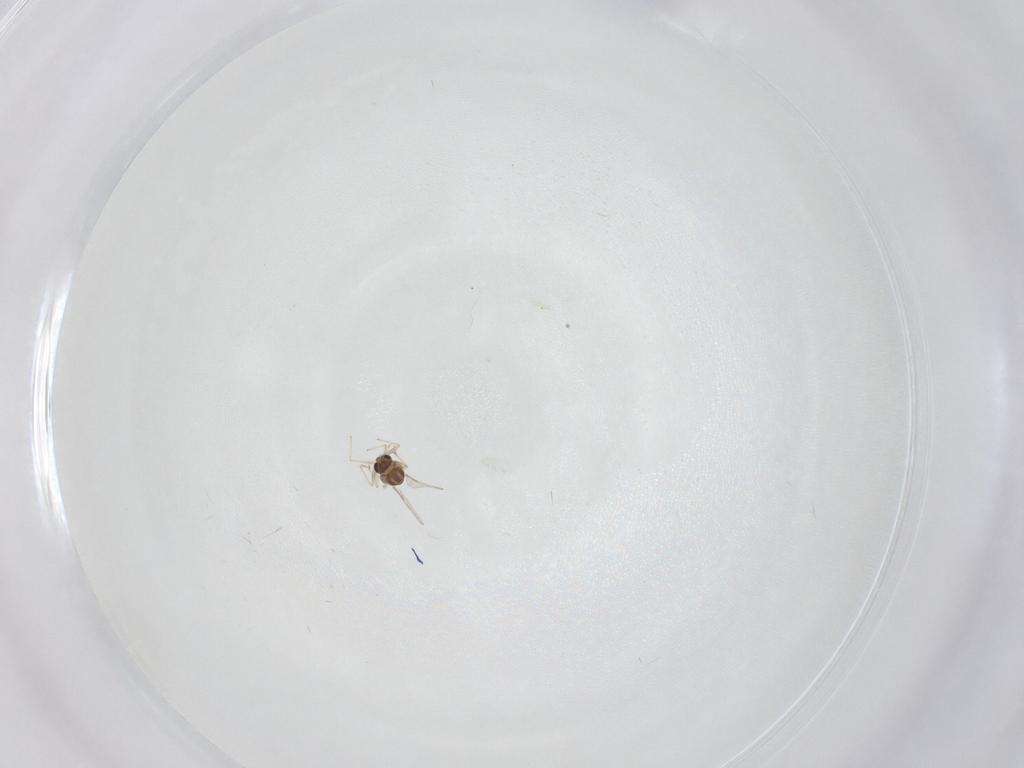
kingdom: Animalia
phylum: Arthropoda
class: Insecta
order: Diptera
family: Chironomidae
